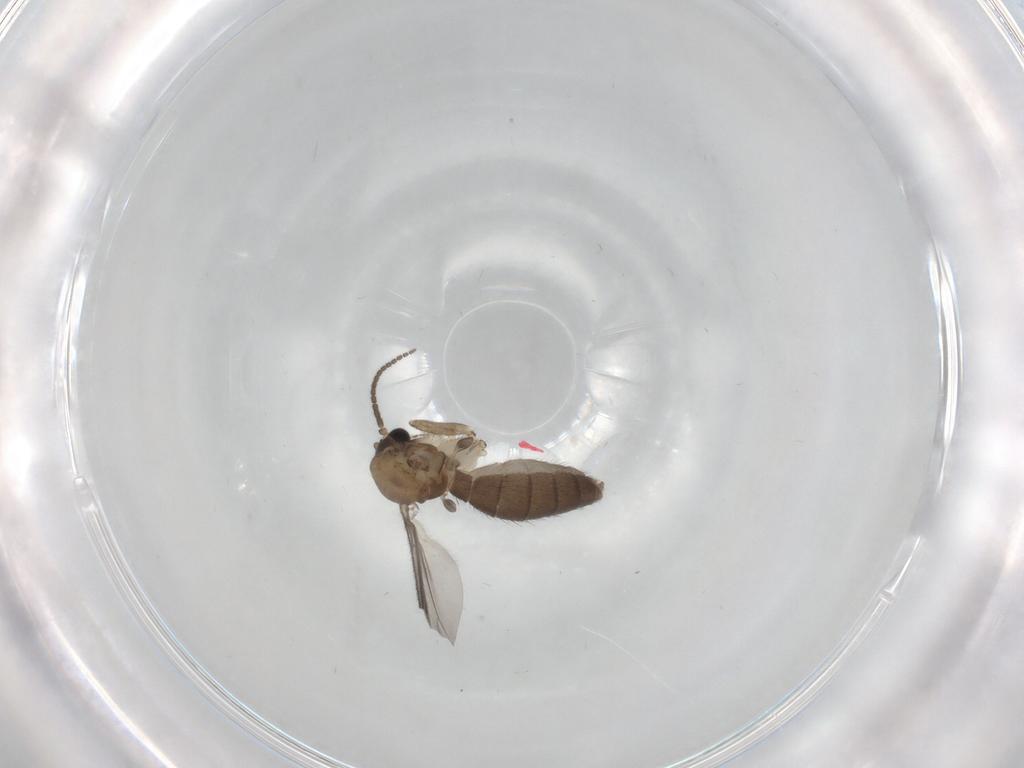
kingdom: Animalia
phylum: Arthropoda
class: Insecta
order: Diptera
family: Mycetophilidae
